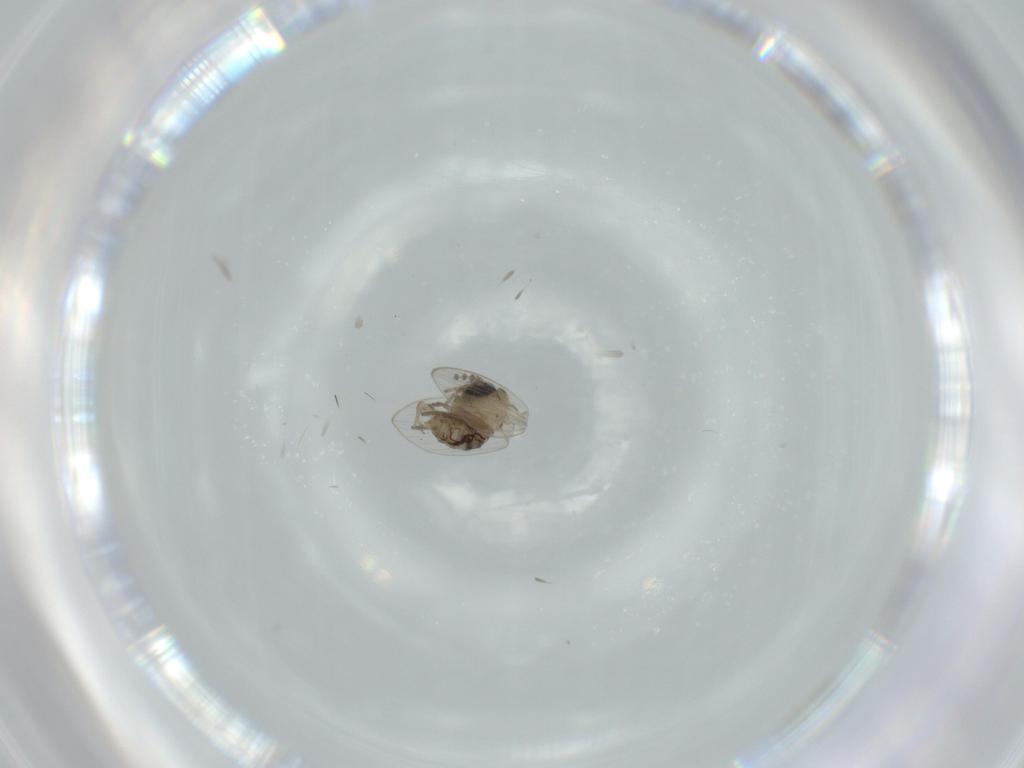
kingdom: Animalia
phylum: Arthropoda
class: Insecta
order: Diptera
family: Psychodidae
